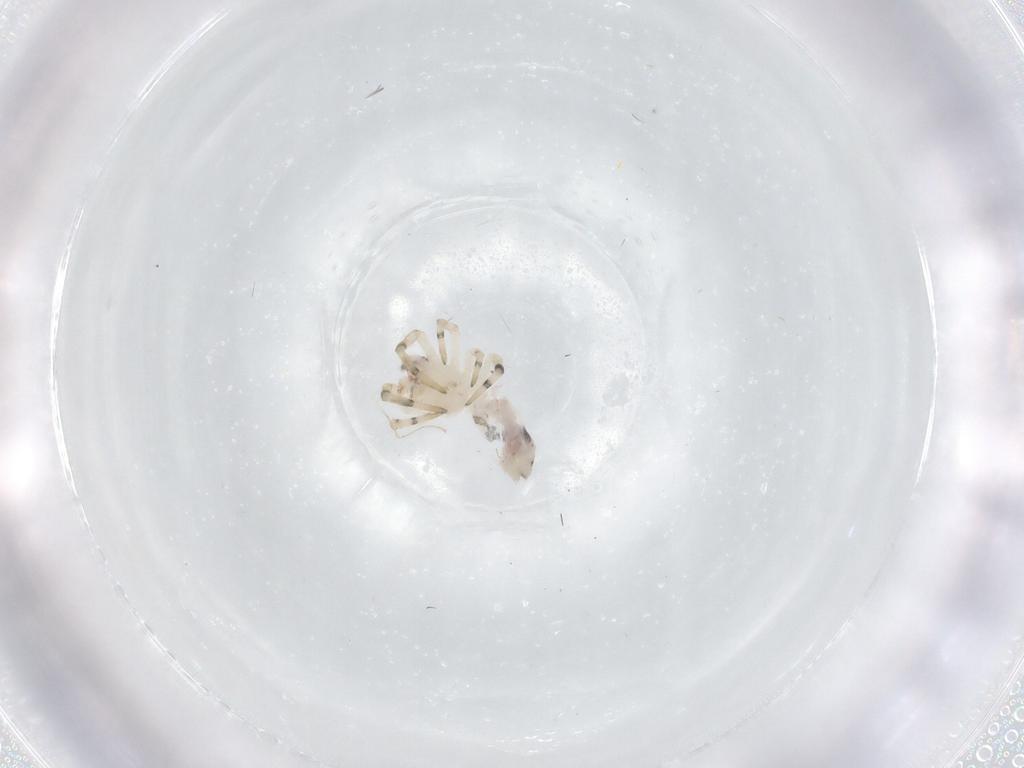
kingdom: Animalia
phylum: Arthropoda
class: Arachnida
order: Araneae
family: Uloboridae
